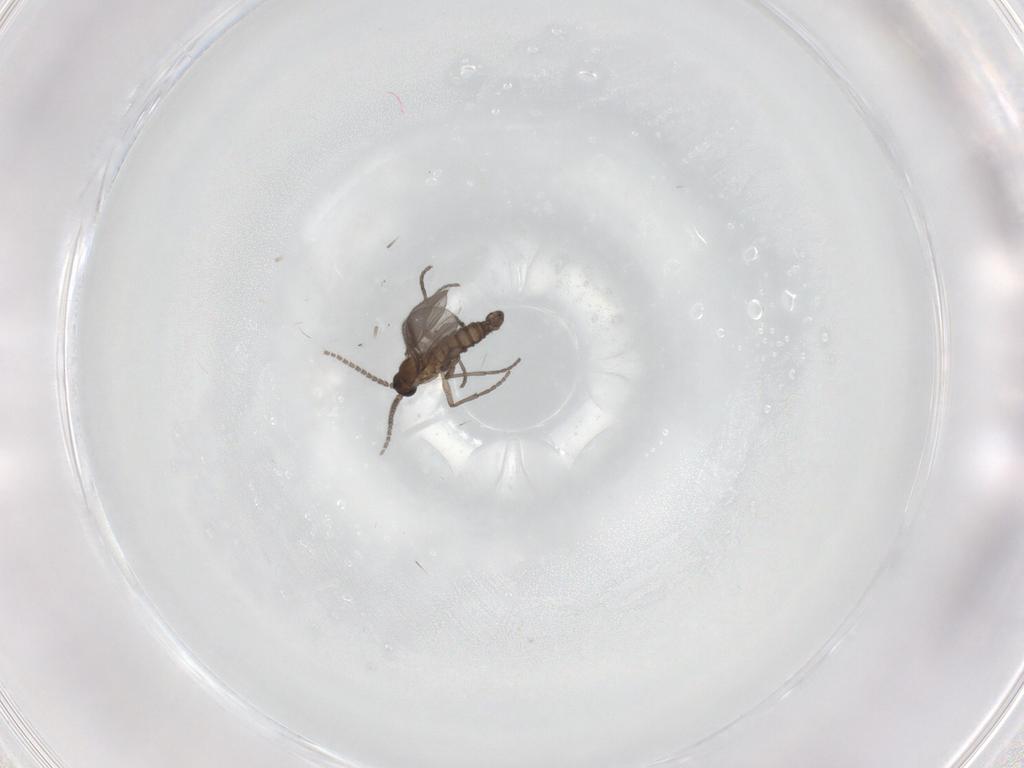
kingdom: Animalia
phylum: Arthropoda
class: Insecta
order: Diptera
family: Sciaridae
